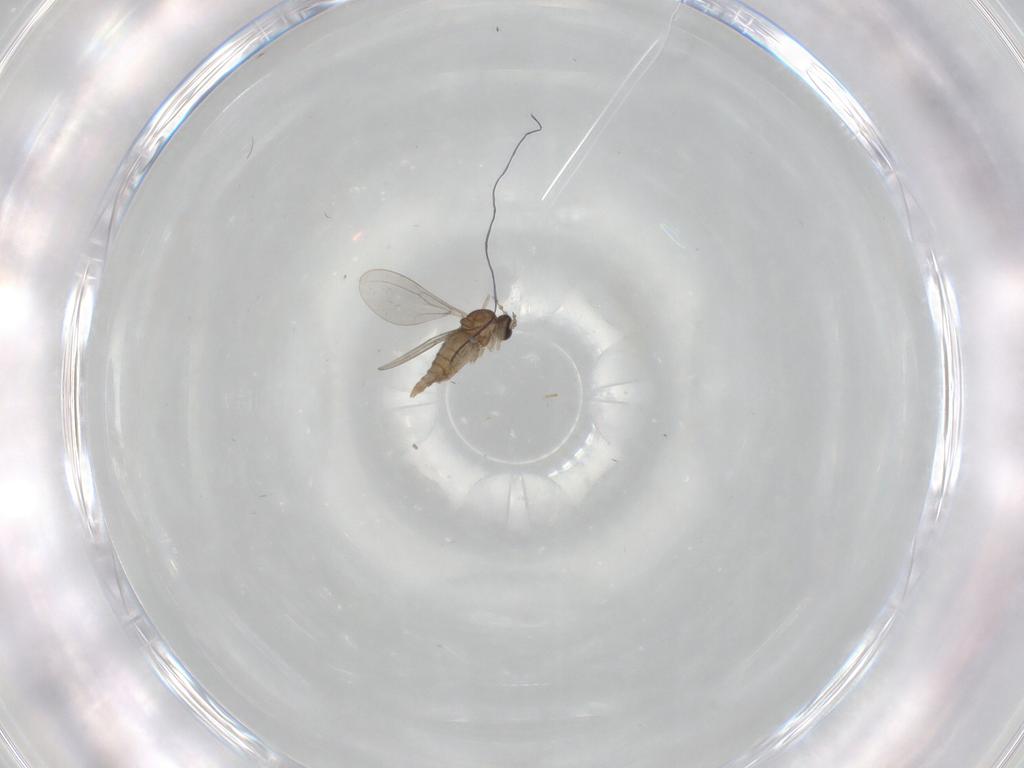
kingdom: Animalia
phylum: Arthropoda
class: Insecta
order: Diptera
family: Cecidomyiidae
